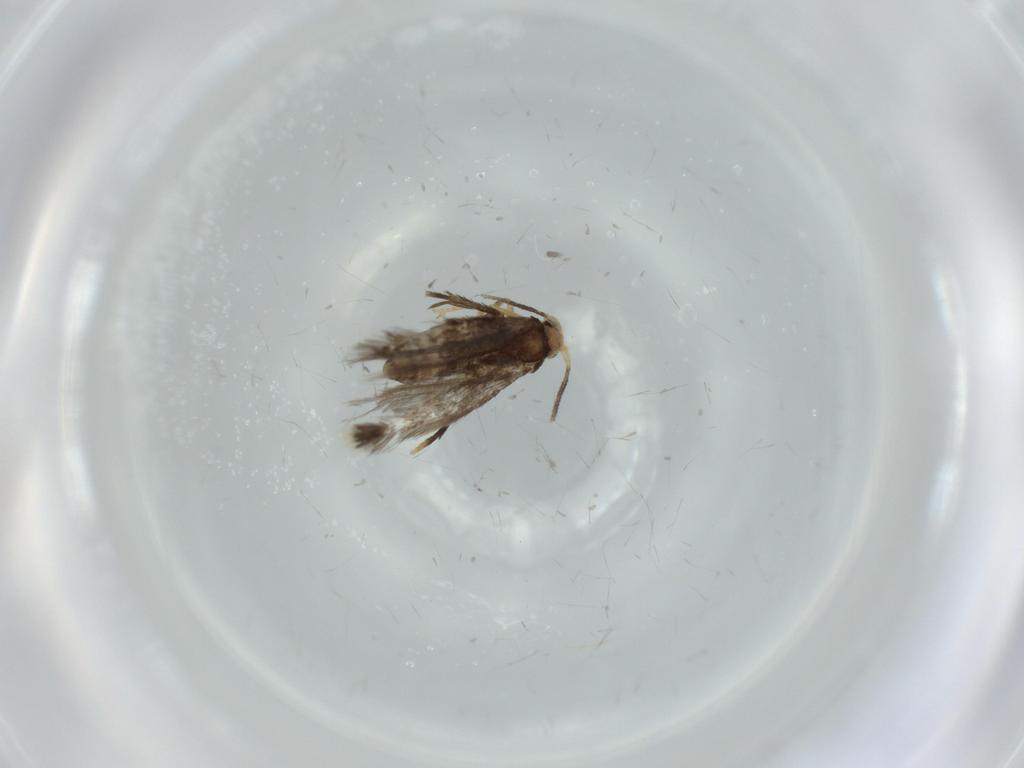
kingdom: Animalia
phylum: Arthropoda
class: Insecta
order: Lepidoptera
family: Nepticulidae
